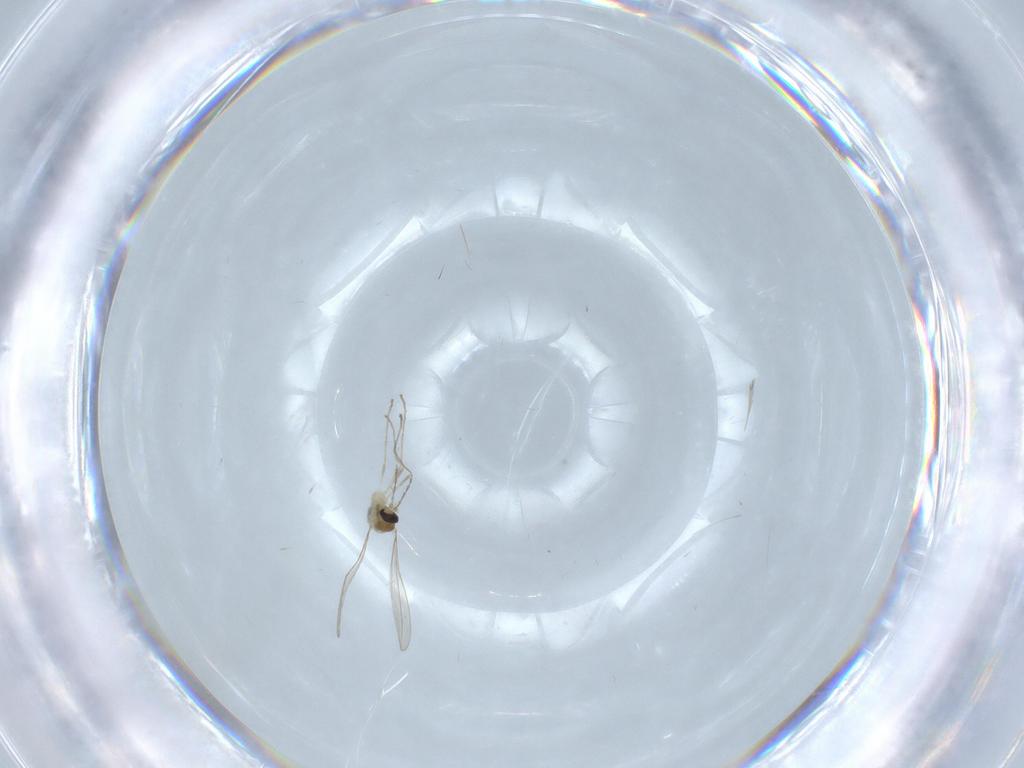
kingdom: Animalia
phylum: Arthropoda
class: Insecta
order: Diptera
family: Cecidomyiidae
